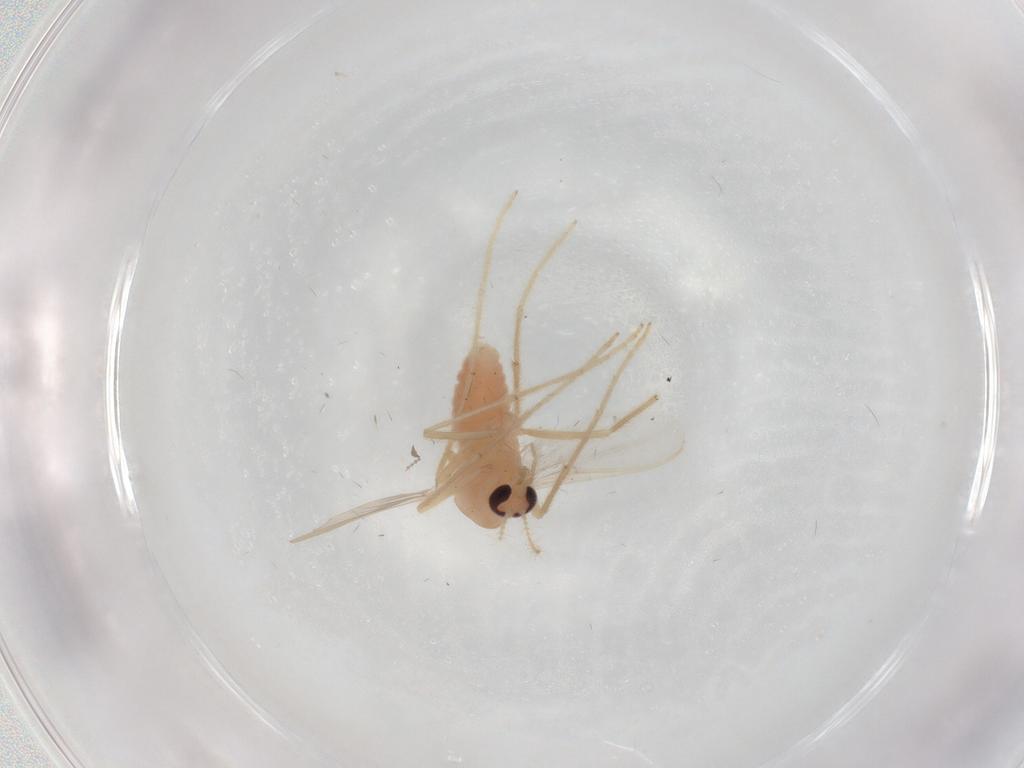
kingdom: Animalia
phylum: Arthropoda
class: Insecta
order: Diptera
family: Chironomidae
